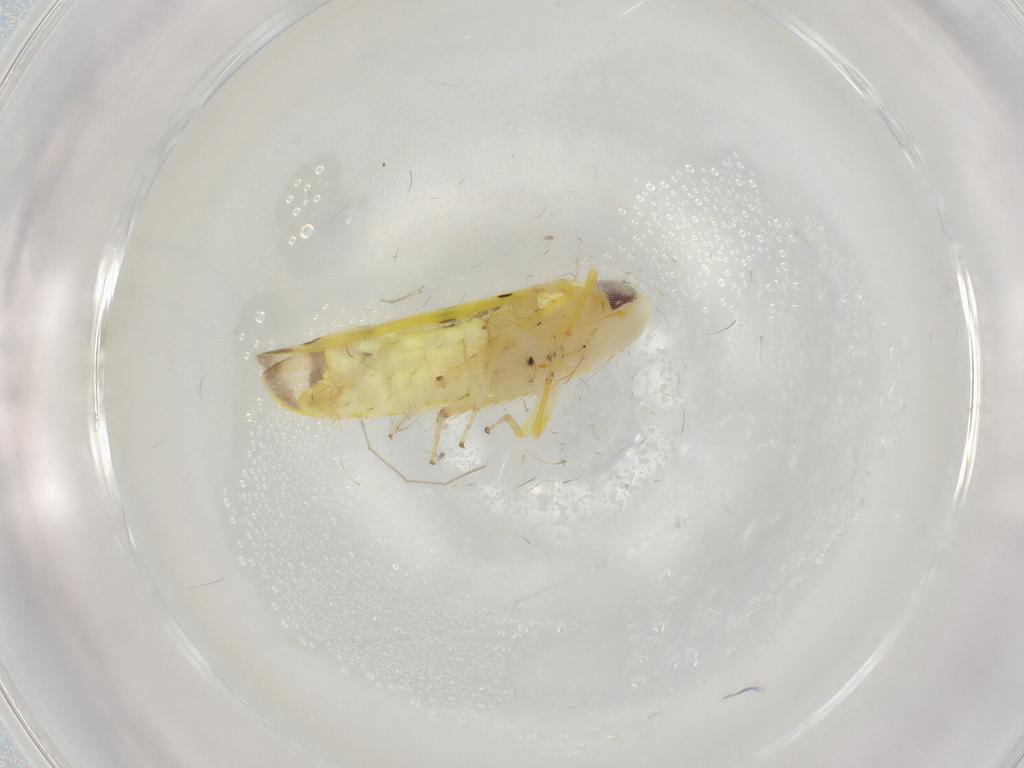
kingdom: Animalia
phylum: Arthropoda
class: Insecta
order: Hemiptera
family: Cicadellidae
